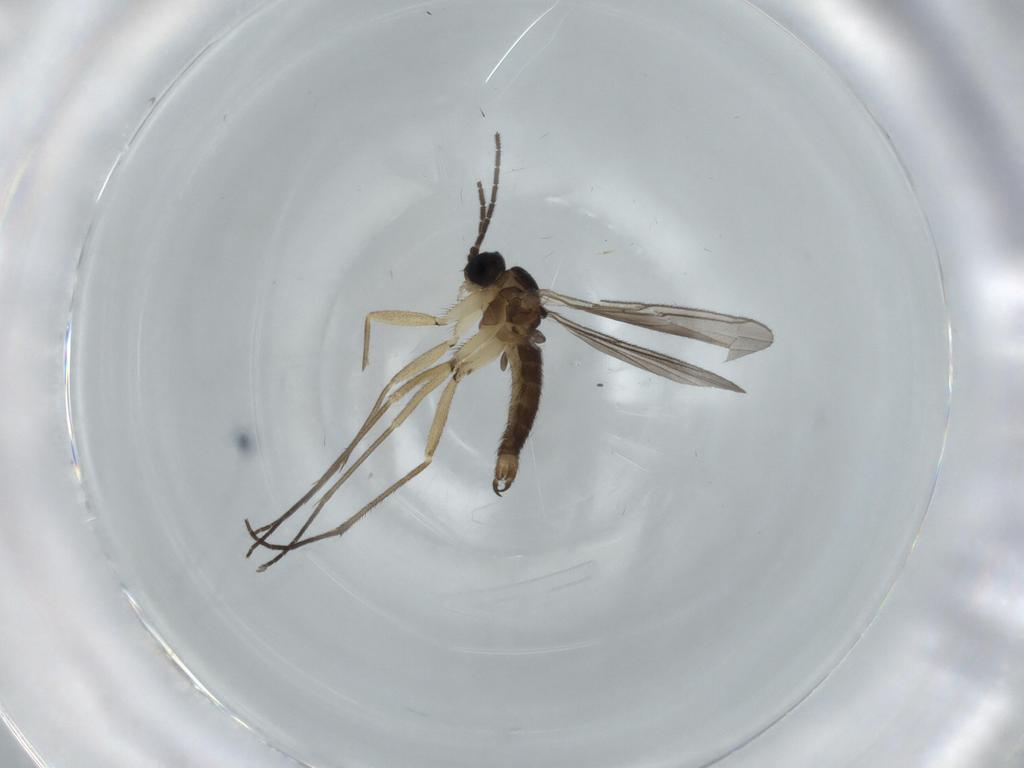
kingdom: Animalia
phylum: Arthropoda
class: Insecta
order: Diptera
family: Sciaridae
